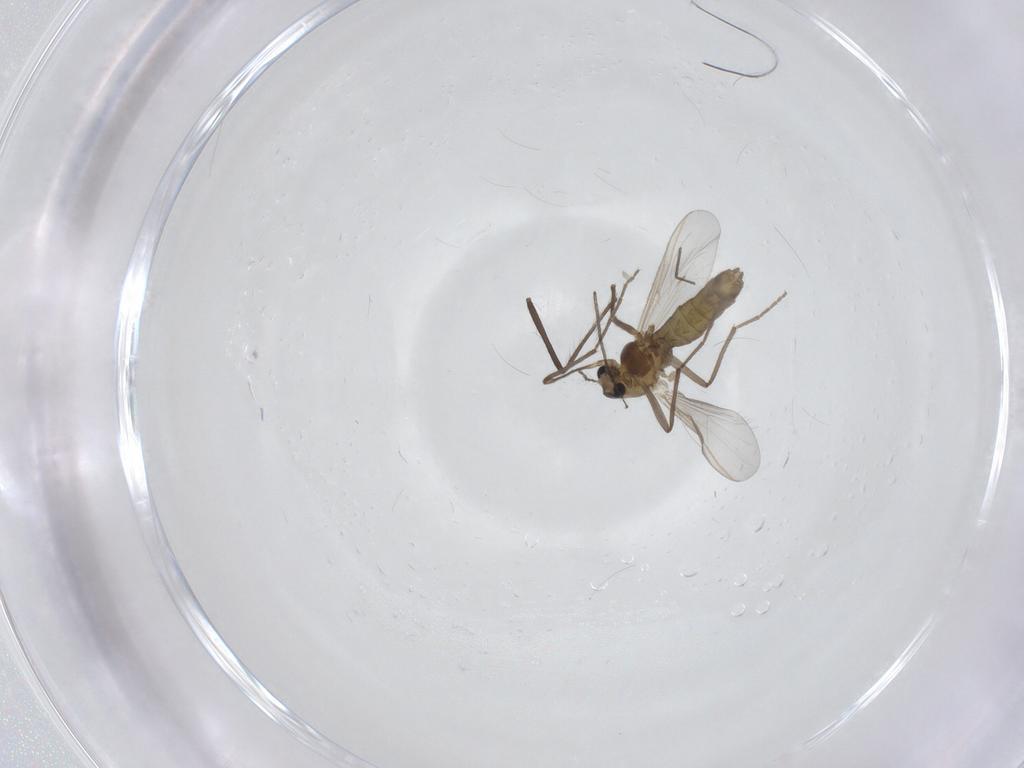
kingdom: Animalia
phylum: Arthropoda
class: Insecta
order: Diptera
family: Chironomidae
